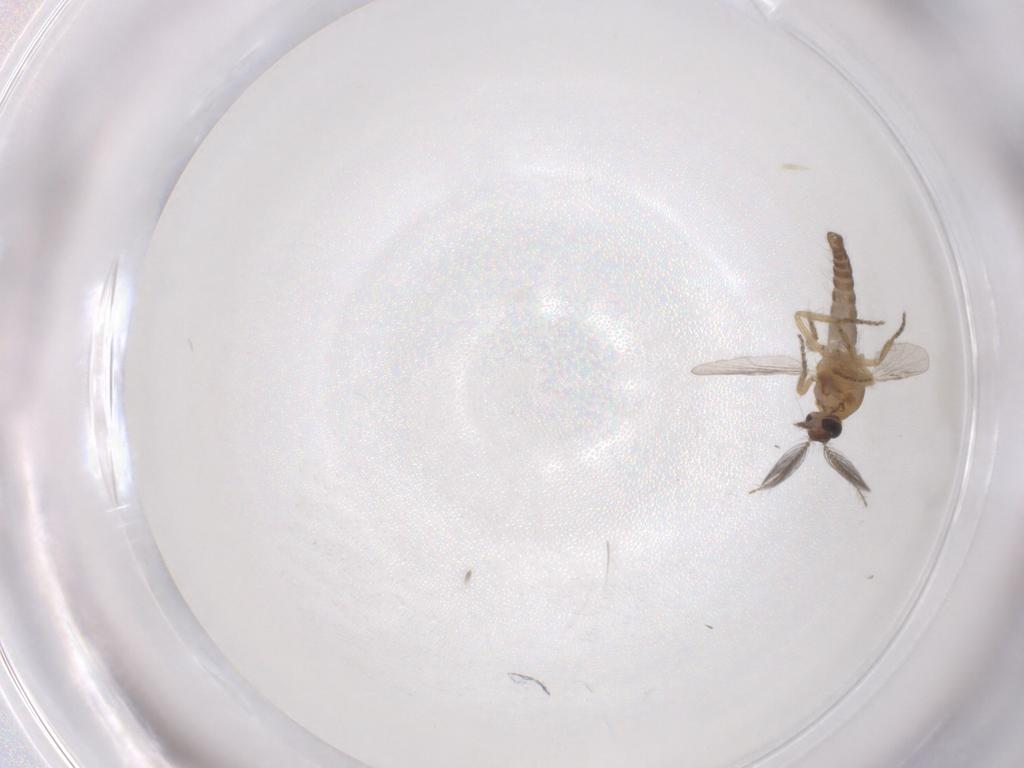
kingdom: Animalia
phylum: Arthropoda
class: Insecta
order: Diptera
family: Ceratopogonidae
